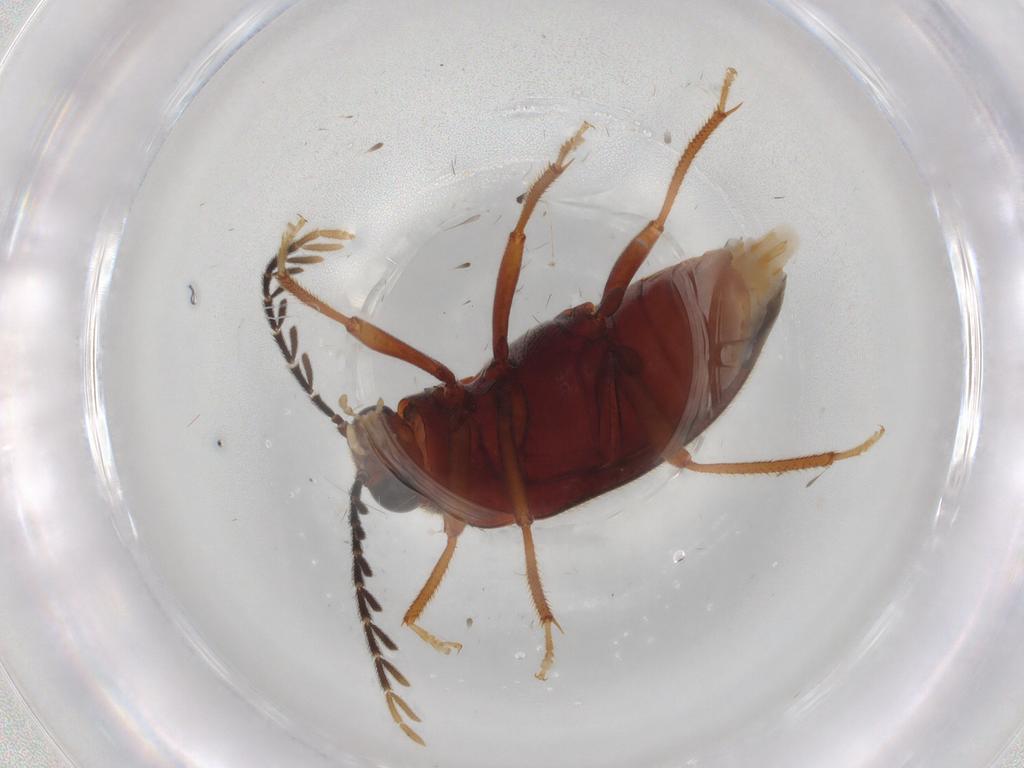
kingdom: Animalia
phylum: Arthropoda
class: Insecta
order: Coleoptera
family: Ptilodactylidae
